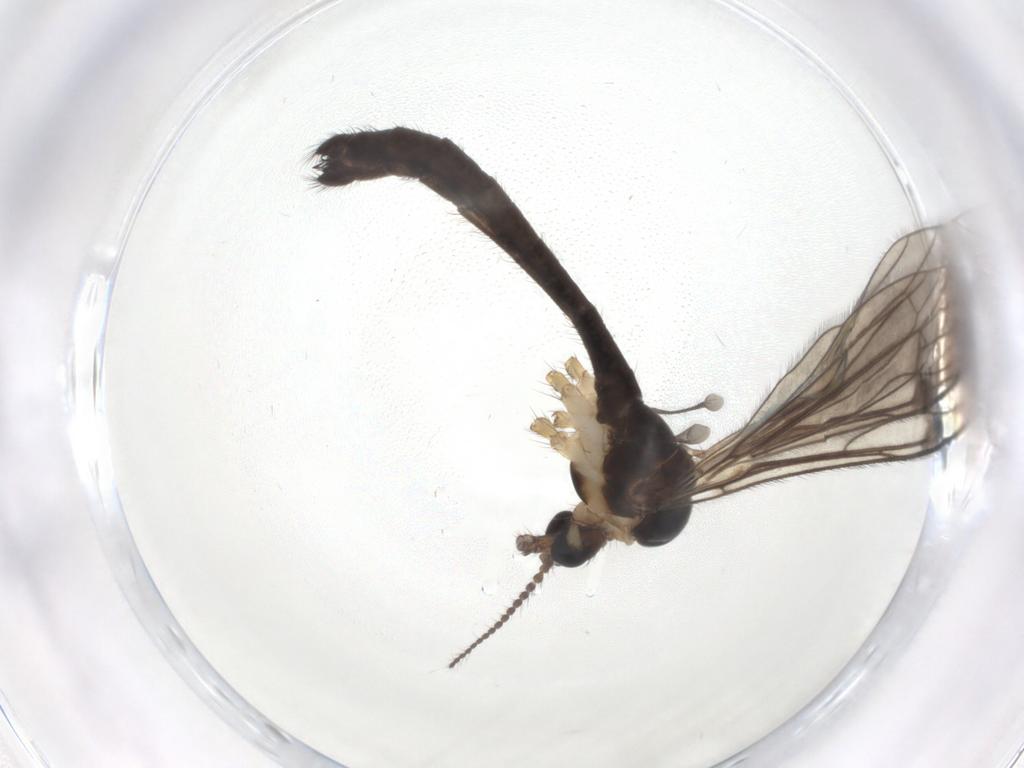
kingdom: Animalia
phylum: Arthropoda
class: Insecta
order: Diptera
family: Limoniidae
